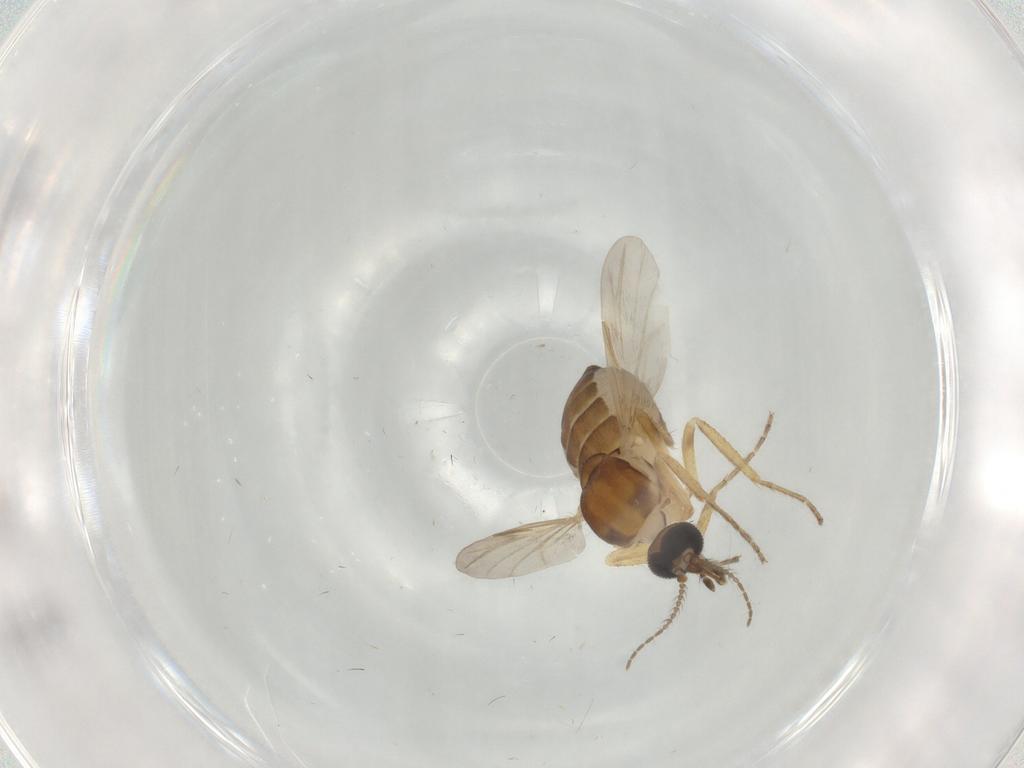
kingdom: Animalia
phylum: Arthropoda
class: Insecta
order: Diptera
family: Ceratopogonidae
